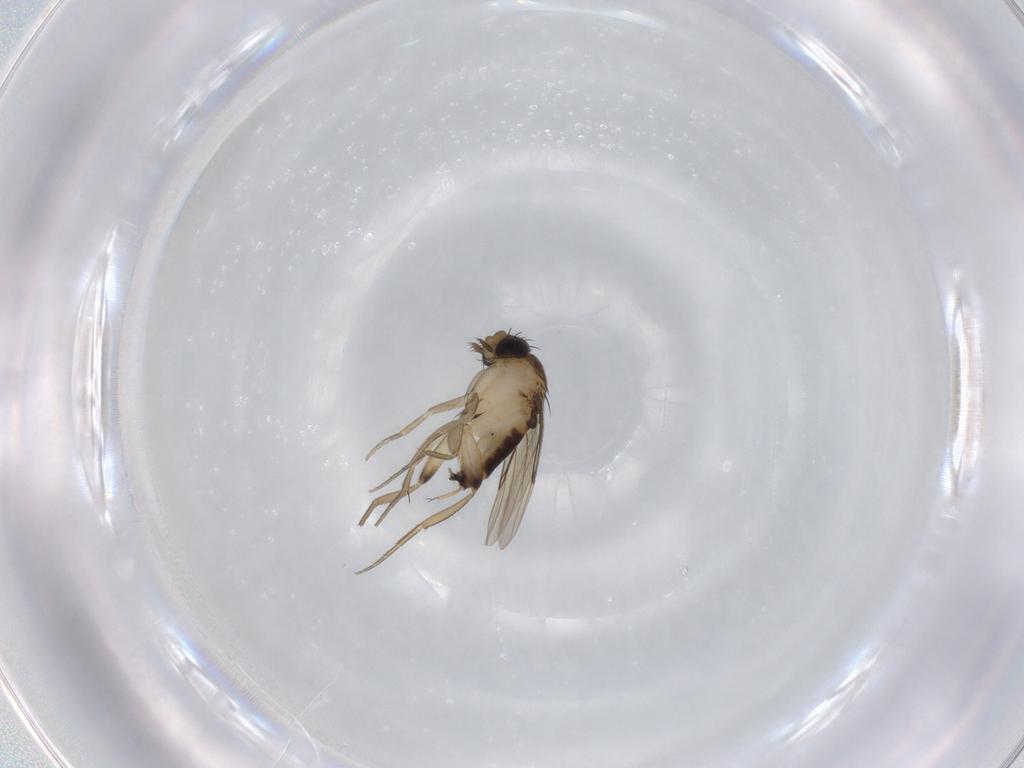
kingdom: Animalia
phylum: Arthropoda
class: Insecta
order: Diptera
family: Phoridae
